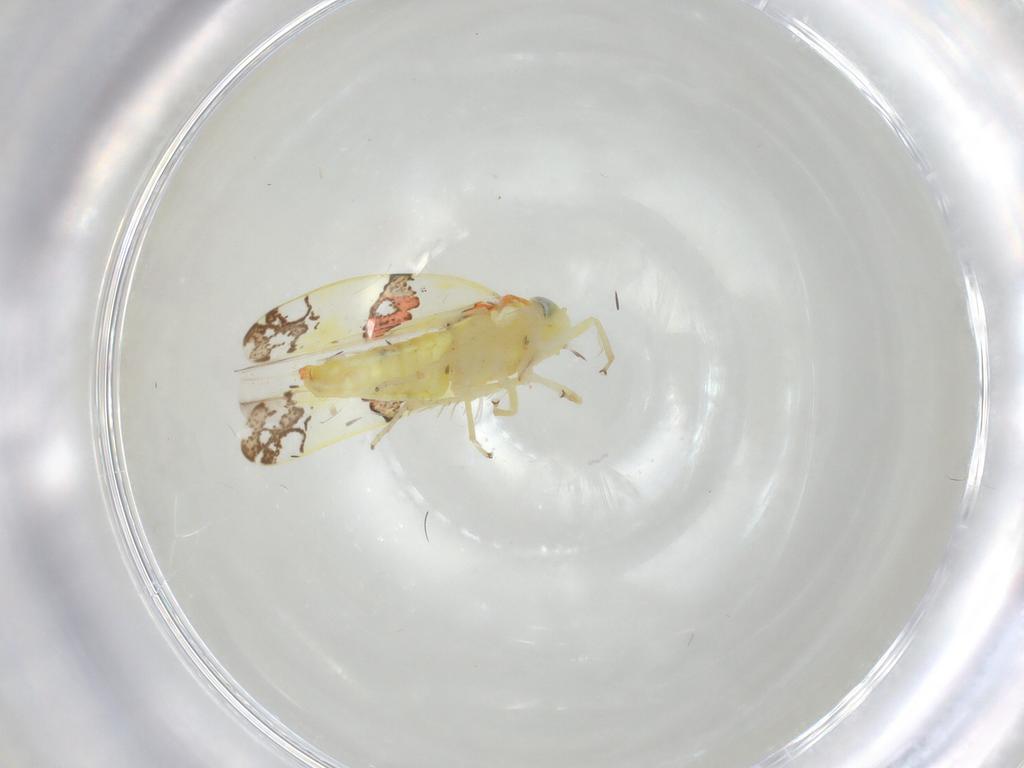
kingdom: Animalia
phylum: Arthropoda
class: Insecta
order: Hemiptera
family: Cicadellidae
